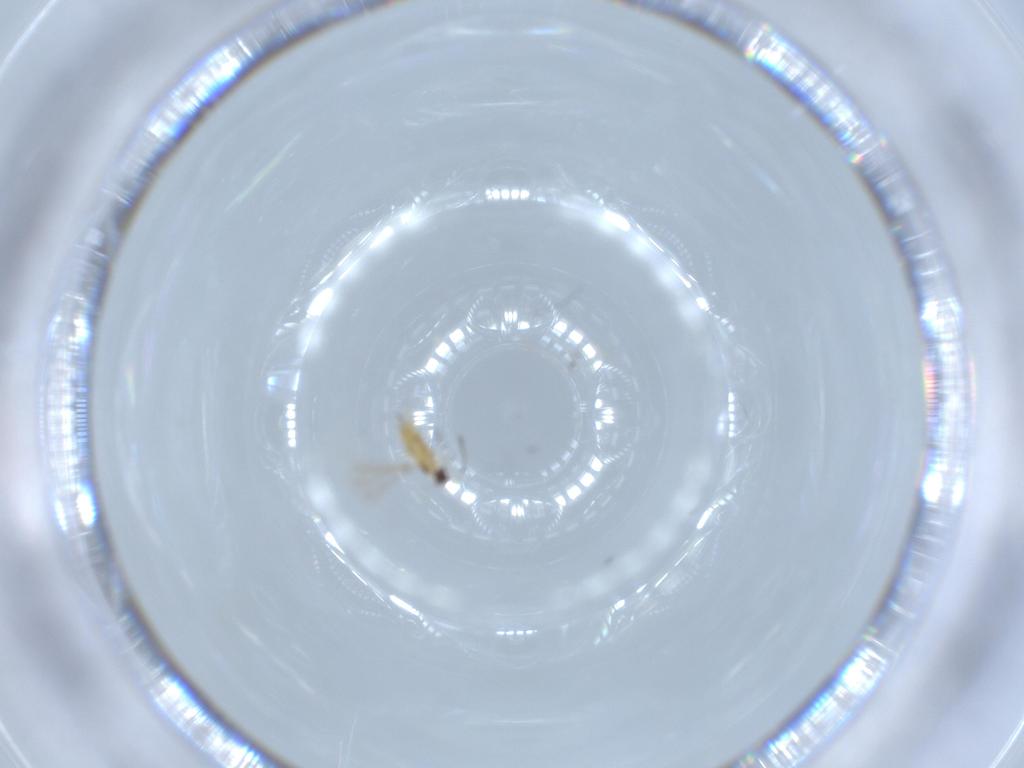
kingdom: Animalia
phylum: Arthropoda
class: Insecta
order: Hymenoptera
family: Mymaridae
